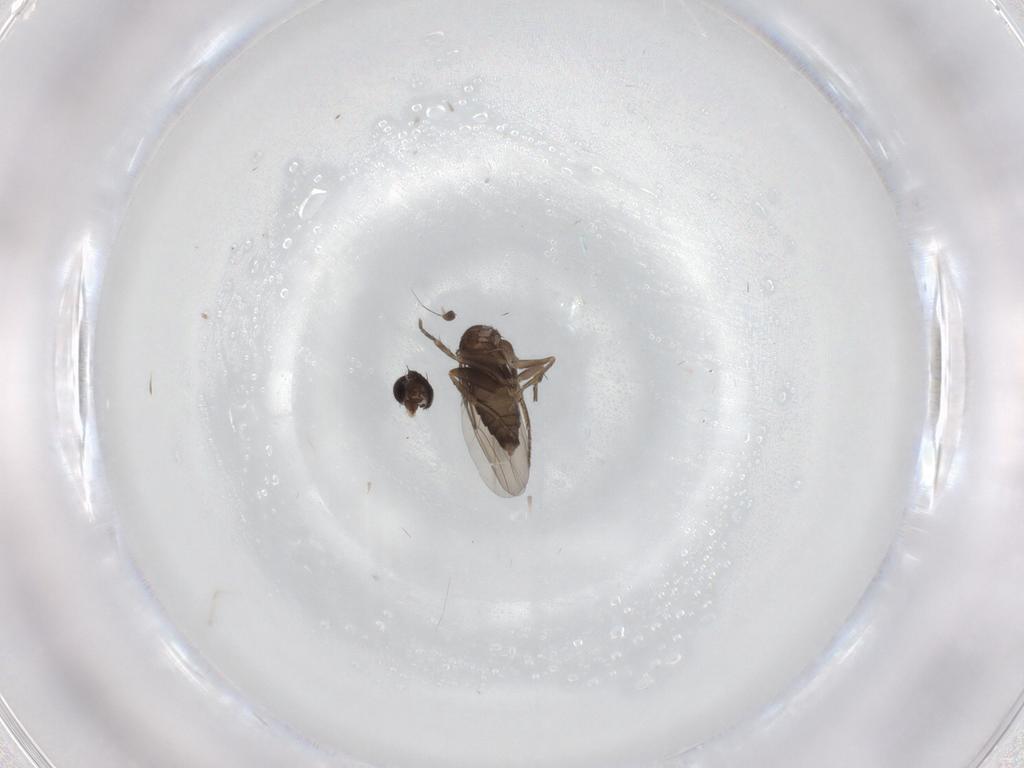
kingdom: Animalia
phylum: Arthropoda
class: Insecta
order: Diptera
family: Phoridae
